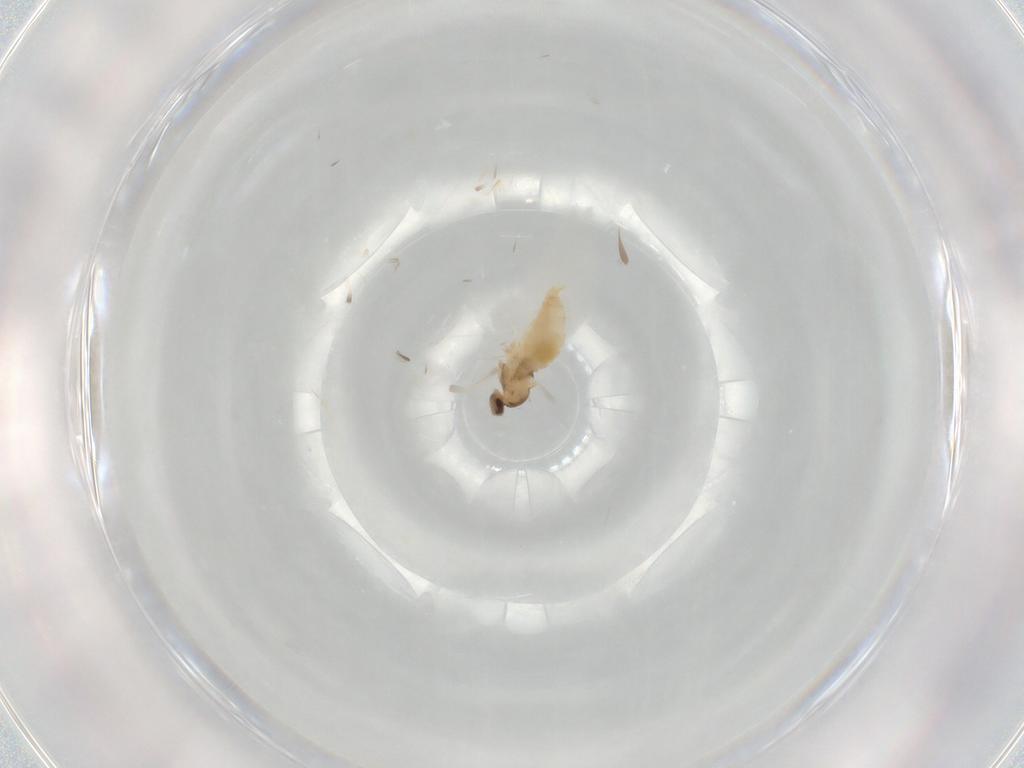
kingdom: Animalia
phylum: Arthropoda
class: Insecta
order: Diptera
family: Cecidomyiidae
